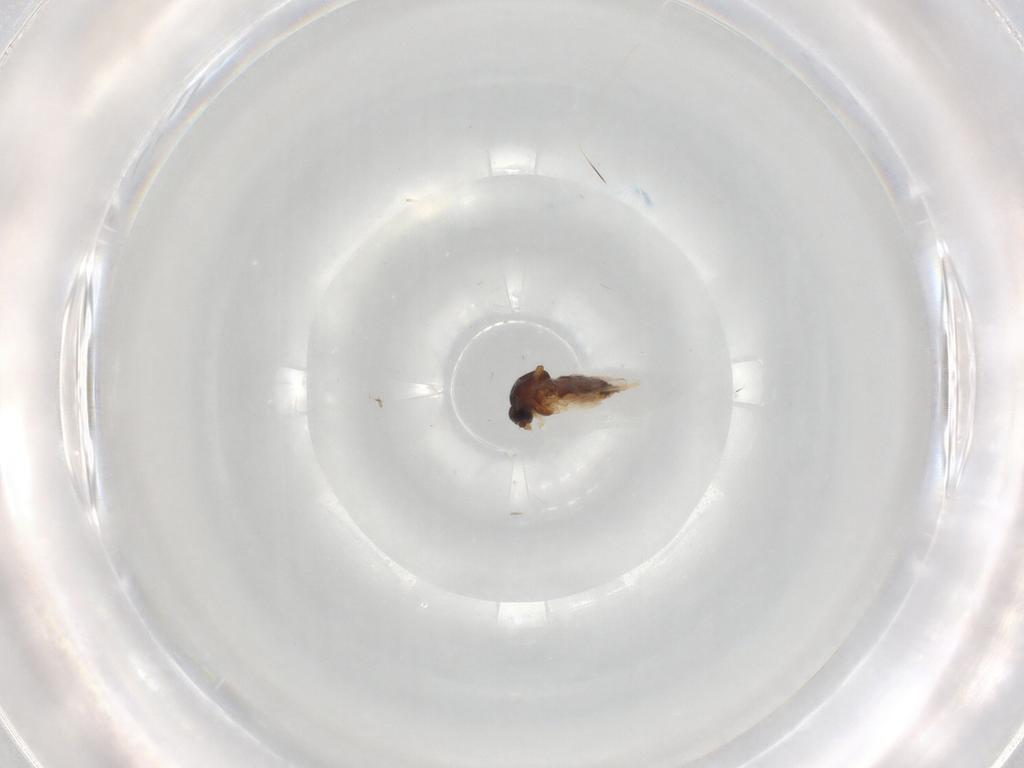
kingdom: Animalia
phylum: Arthropoda
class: Insecta
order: Diptera
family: Ceratopogonidae
